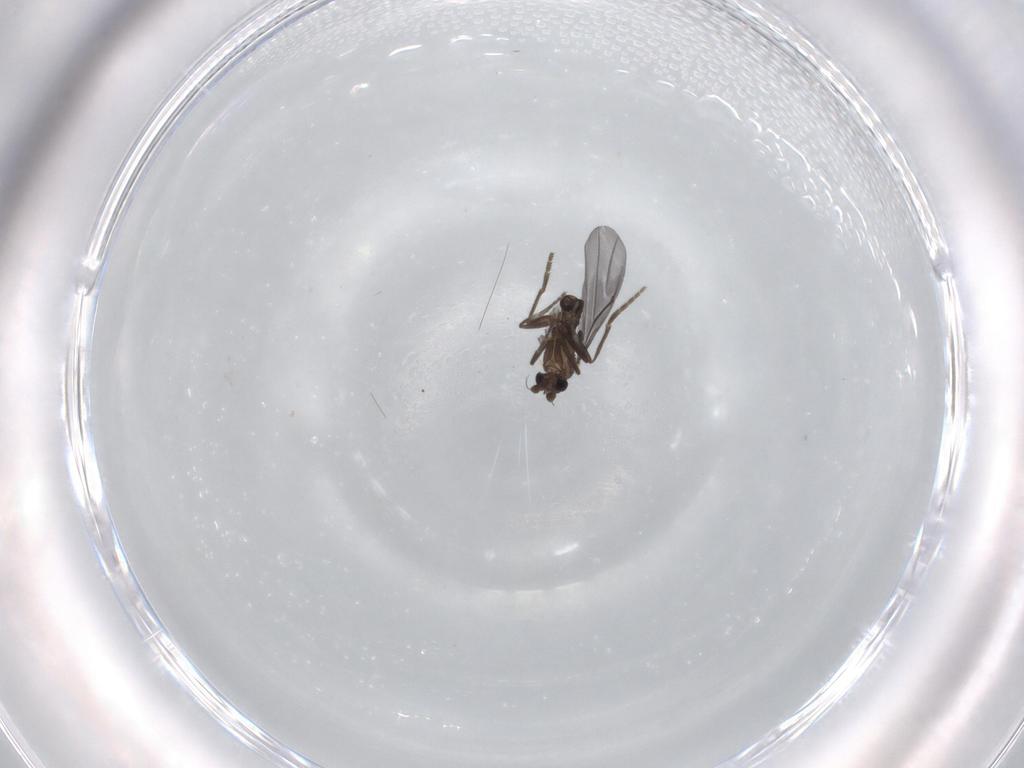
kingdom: Animalia
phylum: Arthropoda
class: Insecta
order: Diptera
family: Phoridae
